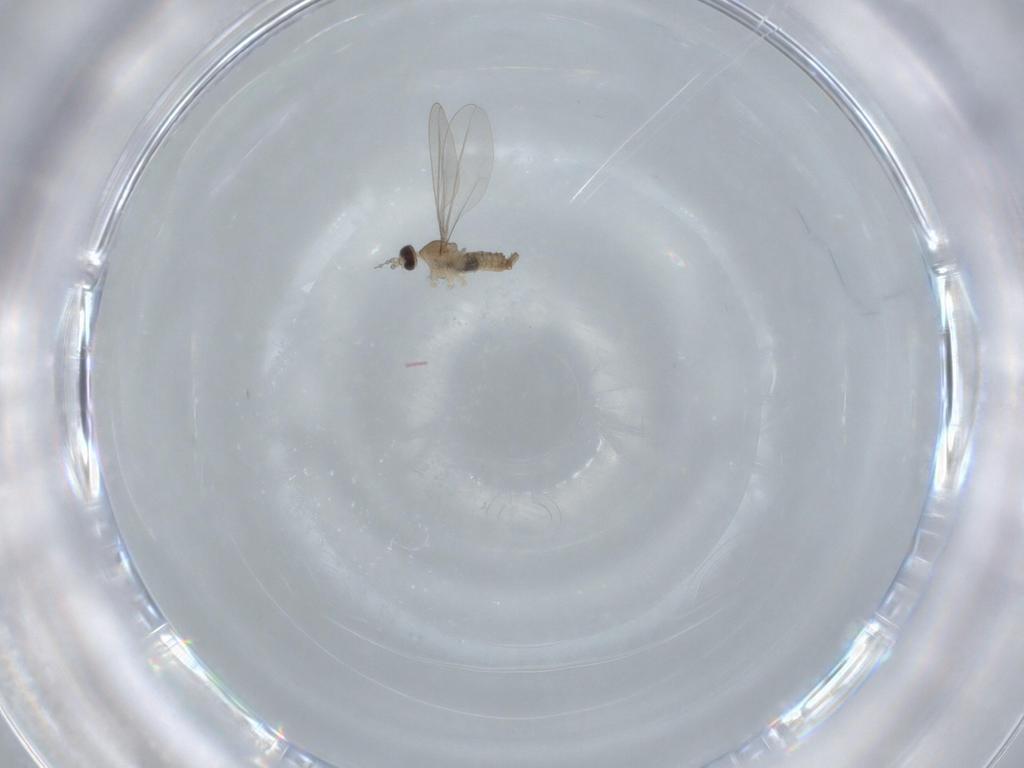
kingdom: Animalia
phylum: Arthropoda
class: Insecta
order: Diptera
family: Cecidomyiidae
